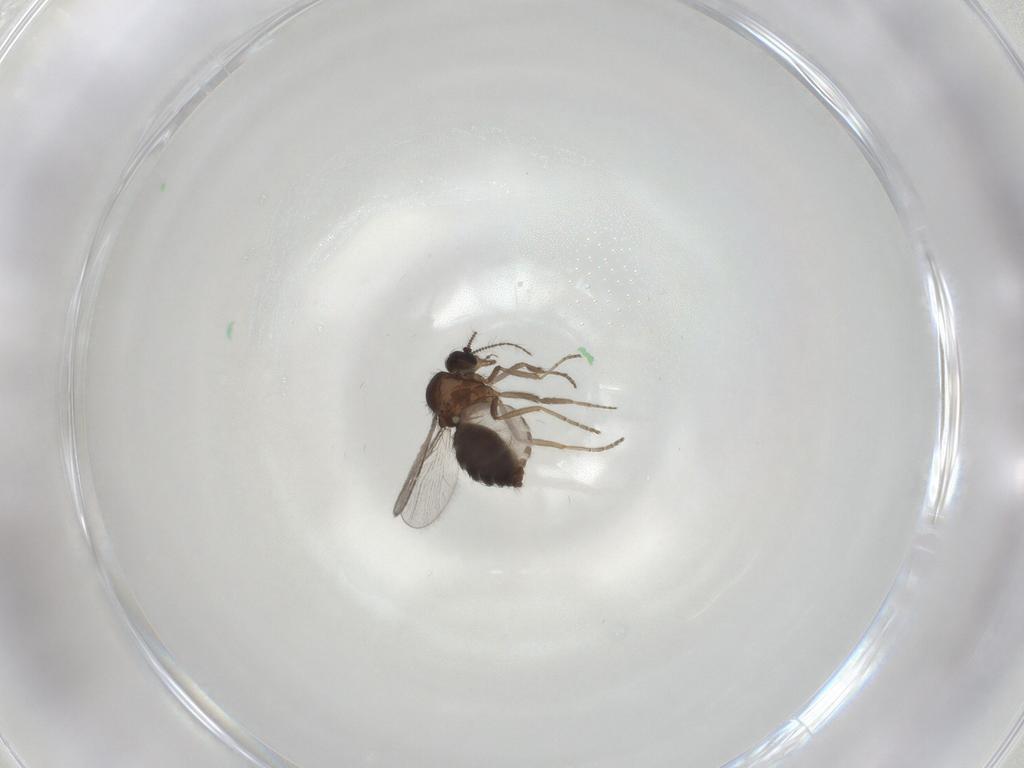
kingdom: Animalia
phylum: Arthropoda
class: Insecta
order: Diptera
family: Ceratopogonidae
